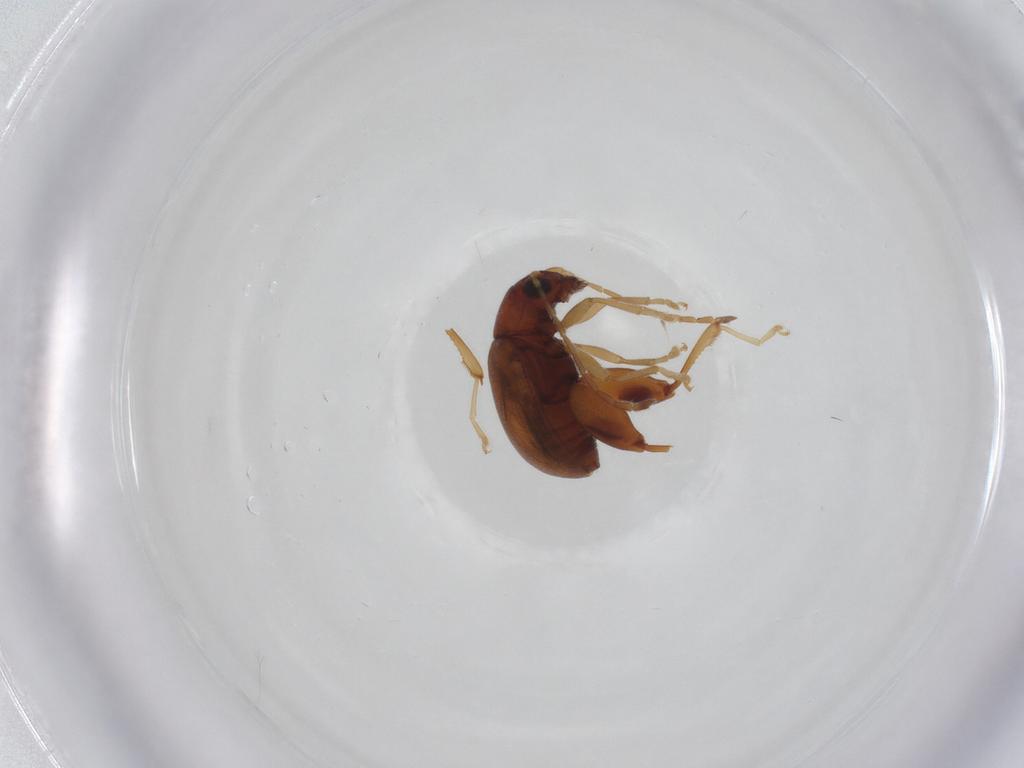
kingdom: Animalia
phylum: Arthropoda
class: Insecta
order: Coleoptera
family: Chrysomelidae
